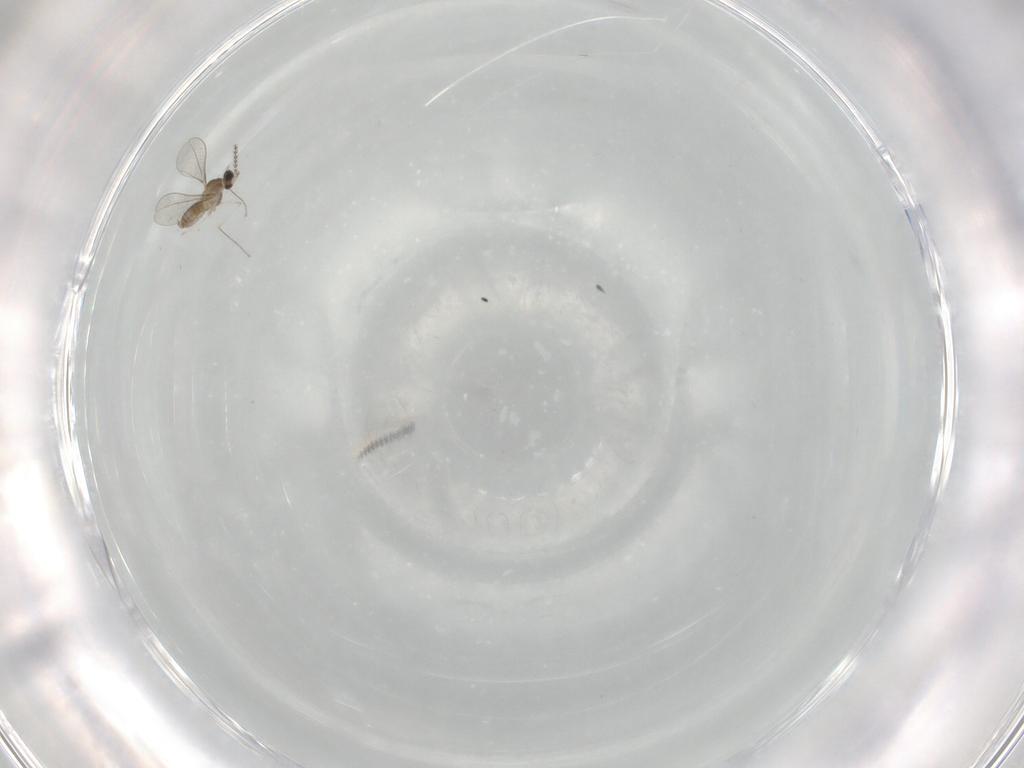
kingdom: Animalia
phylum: Arthropoda
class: Insecta
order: Diptera
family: Cecidomyiidae
